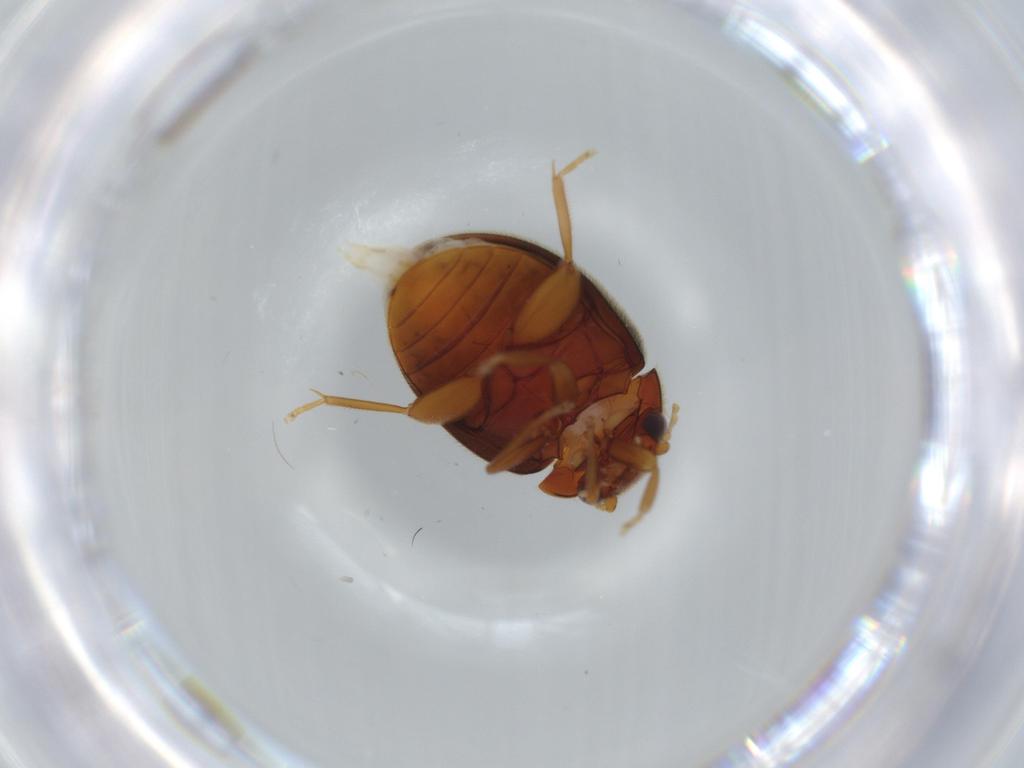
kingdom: Animalia
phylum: Arthropoda
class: Insecta
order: Coleoptera
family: Scirtidae
